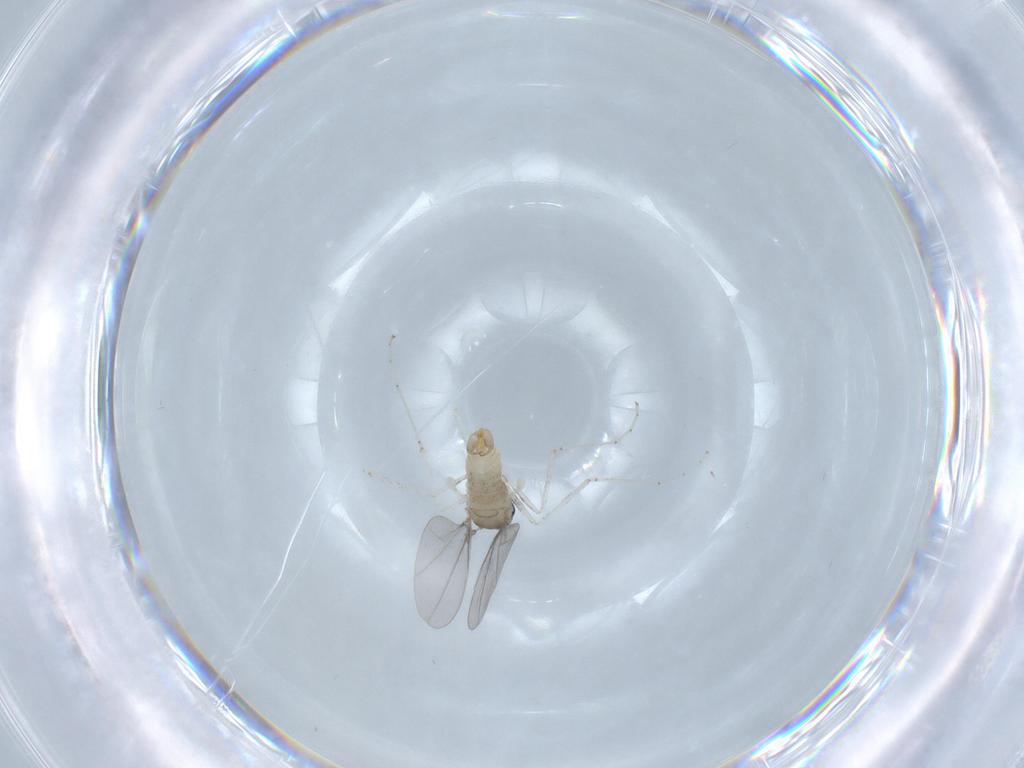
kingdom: Animalia
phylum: Arthropoda
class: Insecta
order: Diptera
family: Cecidomyiidae
